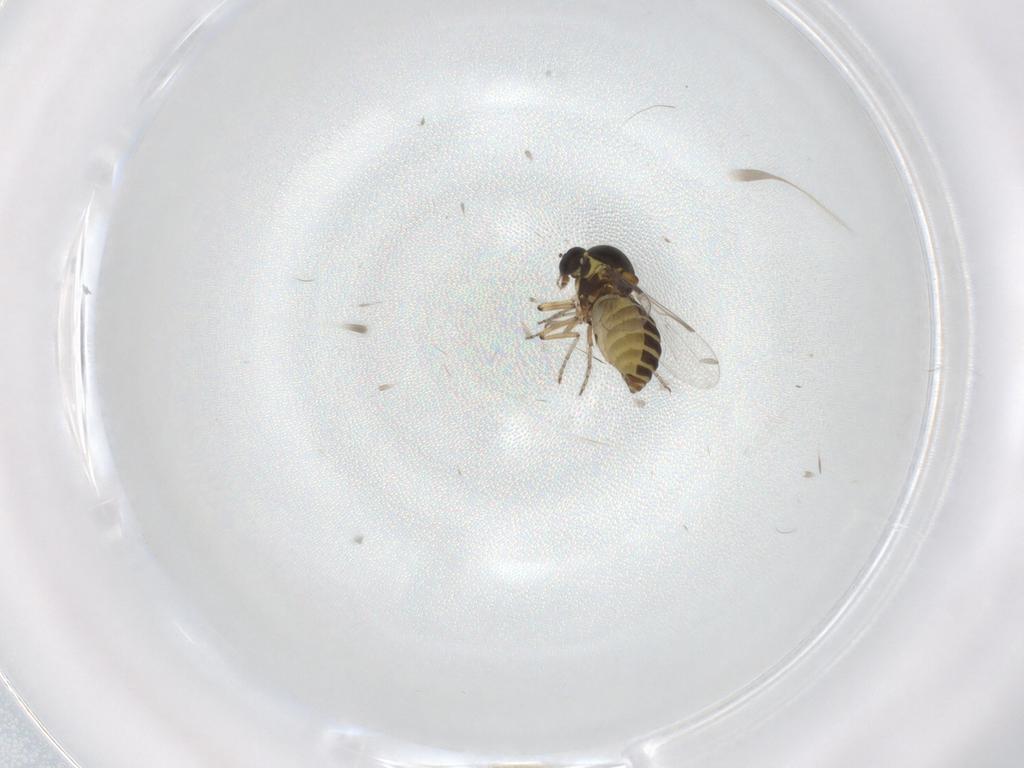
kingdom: Animalia
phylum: Arthropoda
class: Insecta
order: Diptera
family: Ceratopogonidae
